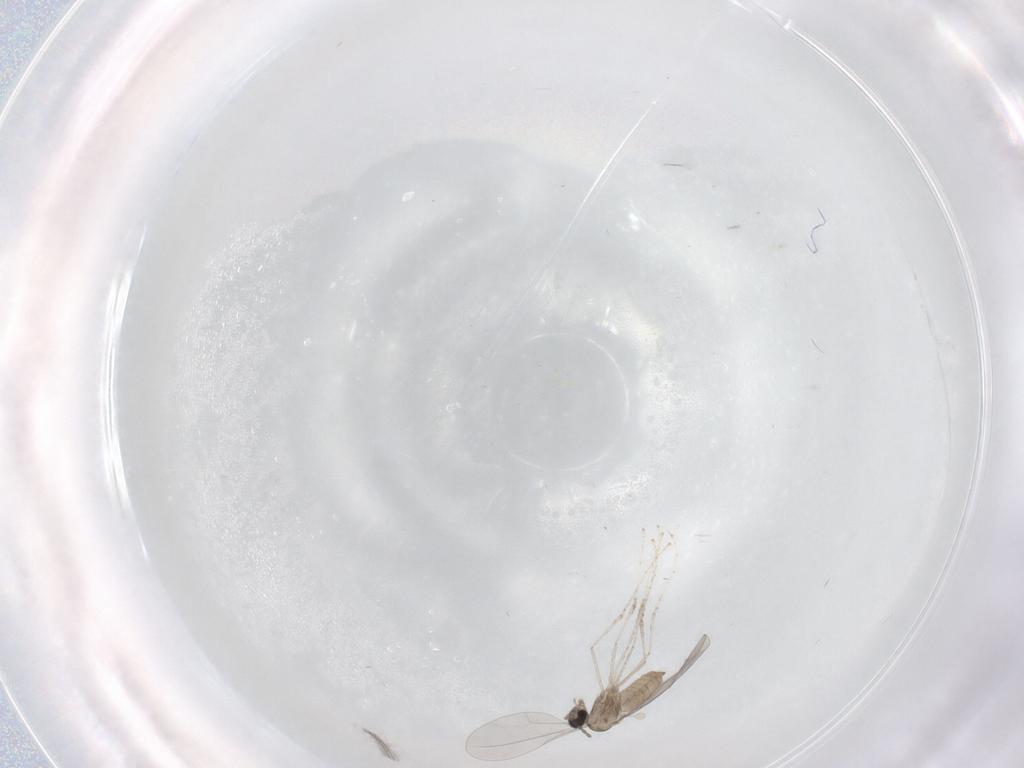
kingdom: Animalia
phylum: Arthropoda
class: Insecta
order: Diptera
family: Ceratopogonidae
